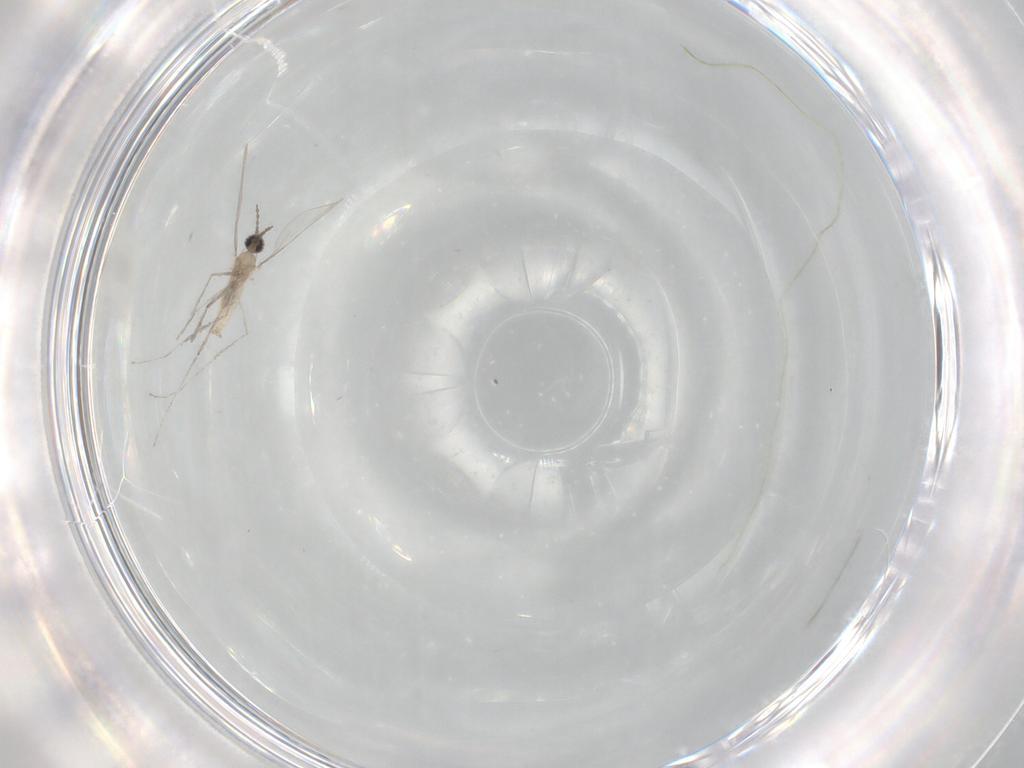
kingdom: Animalia
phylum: Arthropoda
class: Insecta
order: Diptera
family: Cecidomyiidae
